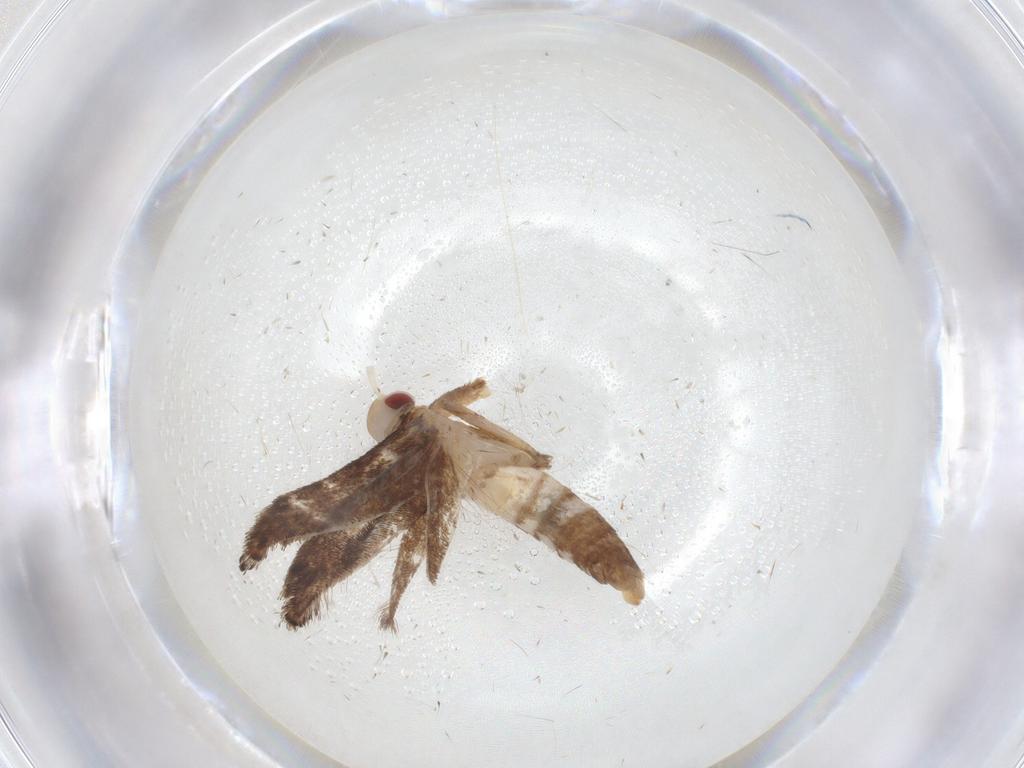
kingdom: Animalia
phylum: Arthropoda
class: Insecta
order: Lepidoptera
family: Cosmopterigidae
